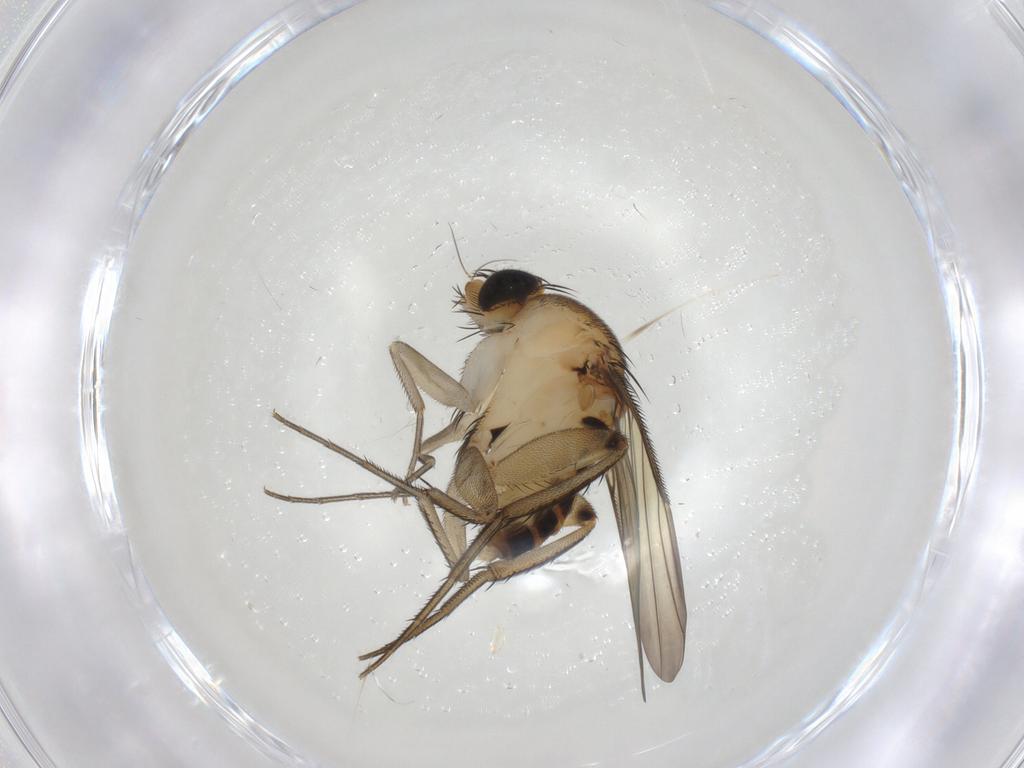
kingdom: Animalia
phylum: Arthropoda
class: Insecta
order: Diptera
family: Phoridae
